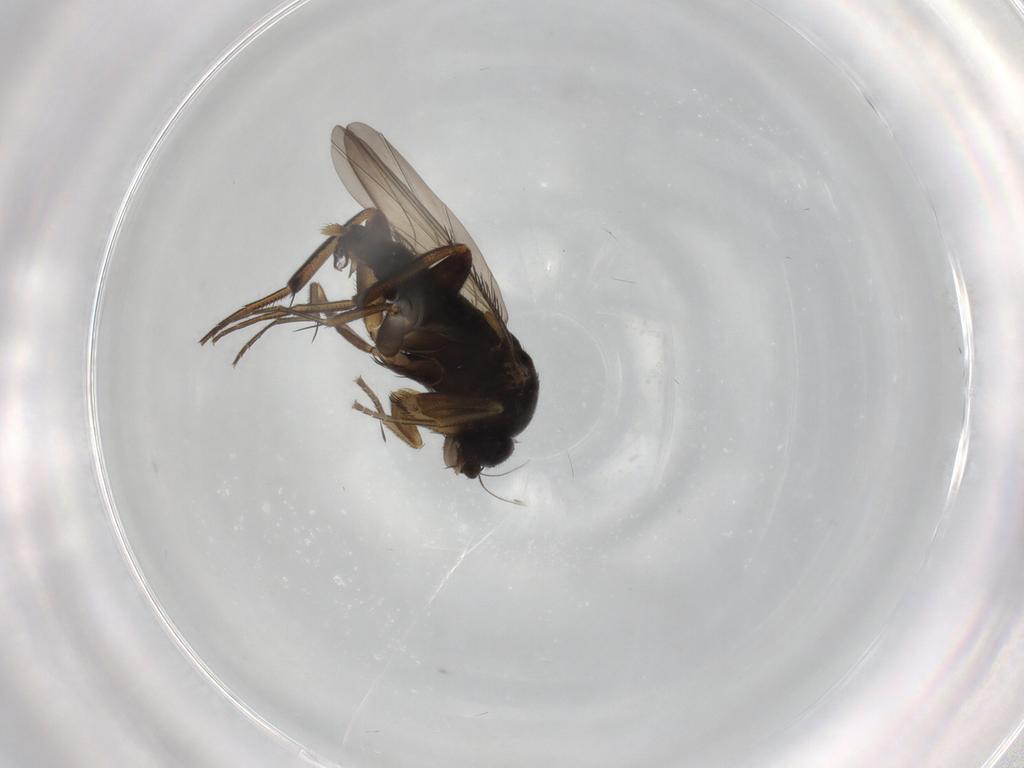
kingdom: Animalia
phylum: Arthropoda
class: Insecta
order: Diptera
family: Phoridae
